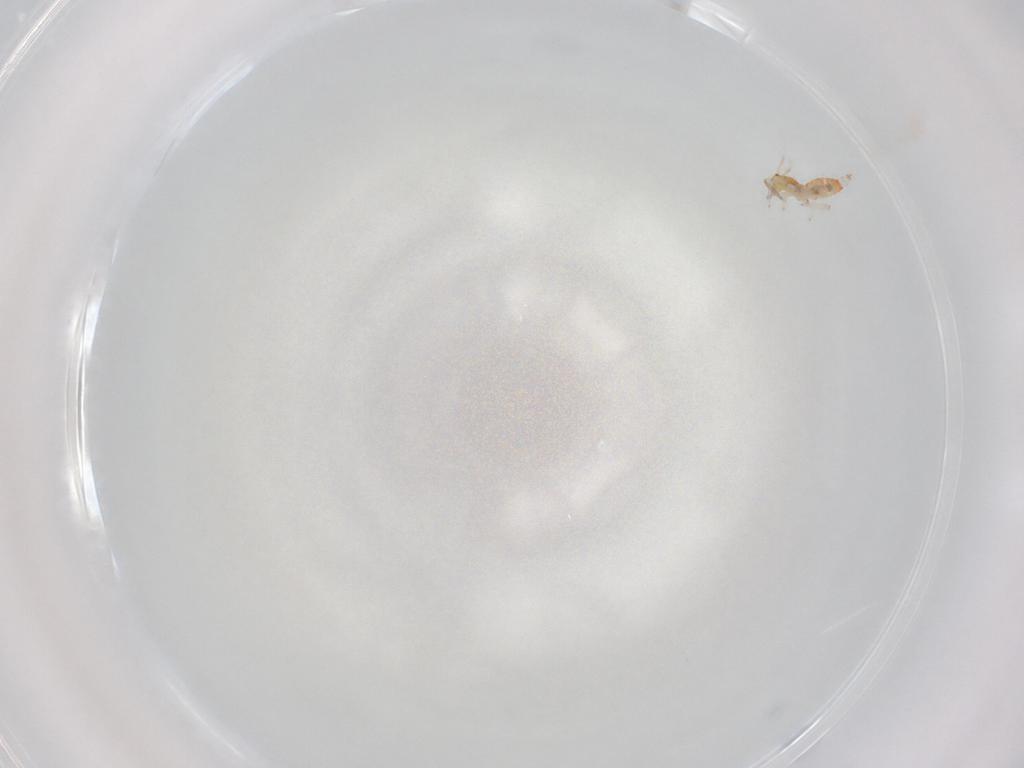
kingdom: Animalia
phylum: Arthropoda
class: Insecta
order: Thysanoptera
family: Aeolothripidae
